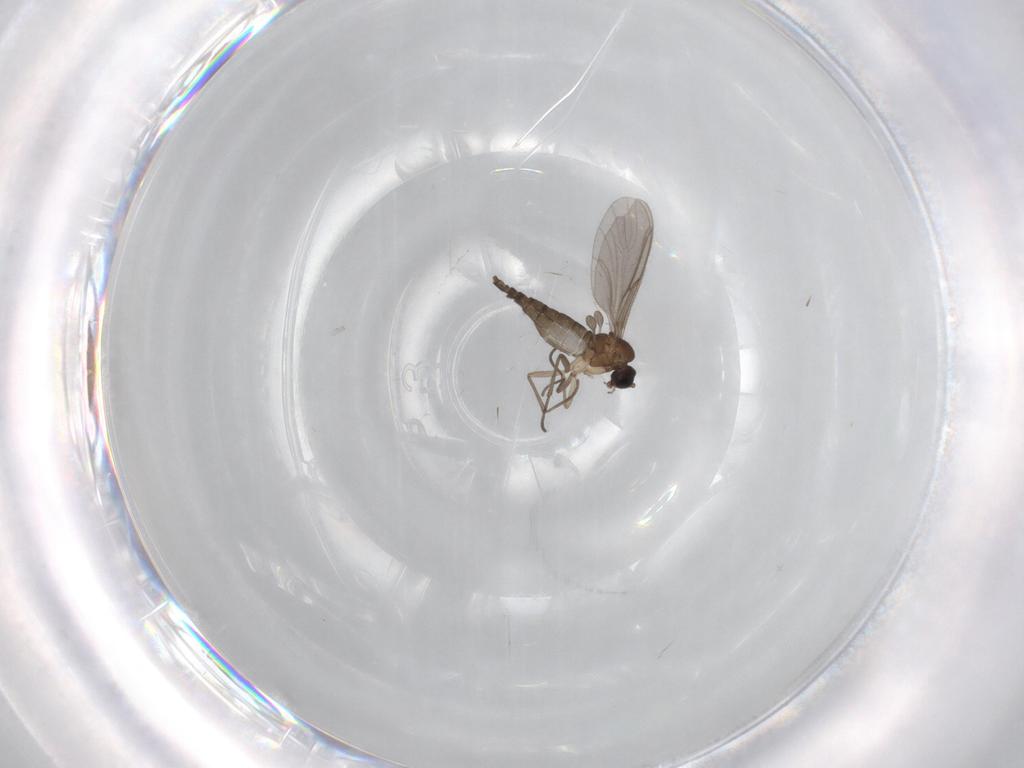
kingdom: Animalia
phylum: Arthropoda
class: Insecta
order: Diptera
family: Sciaridae
